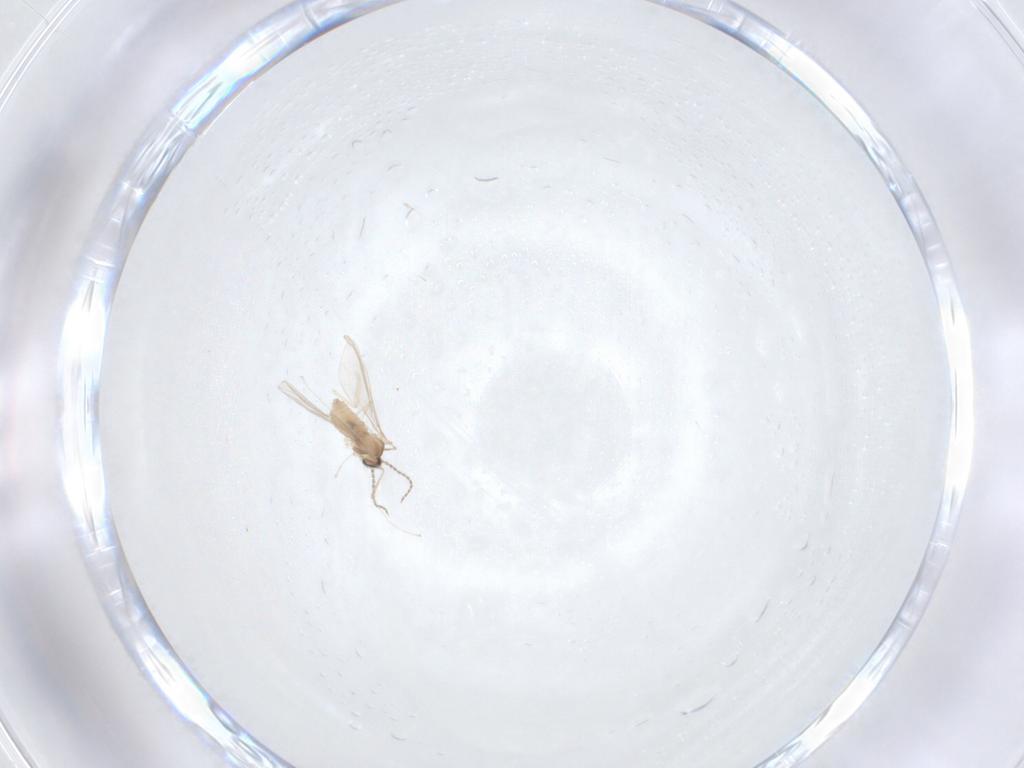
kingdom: Animalia
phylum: Arthropoda
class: Insecta
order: Diptera
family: Cecidomyiidae
